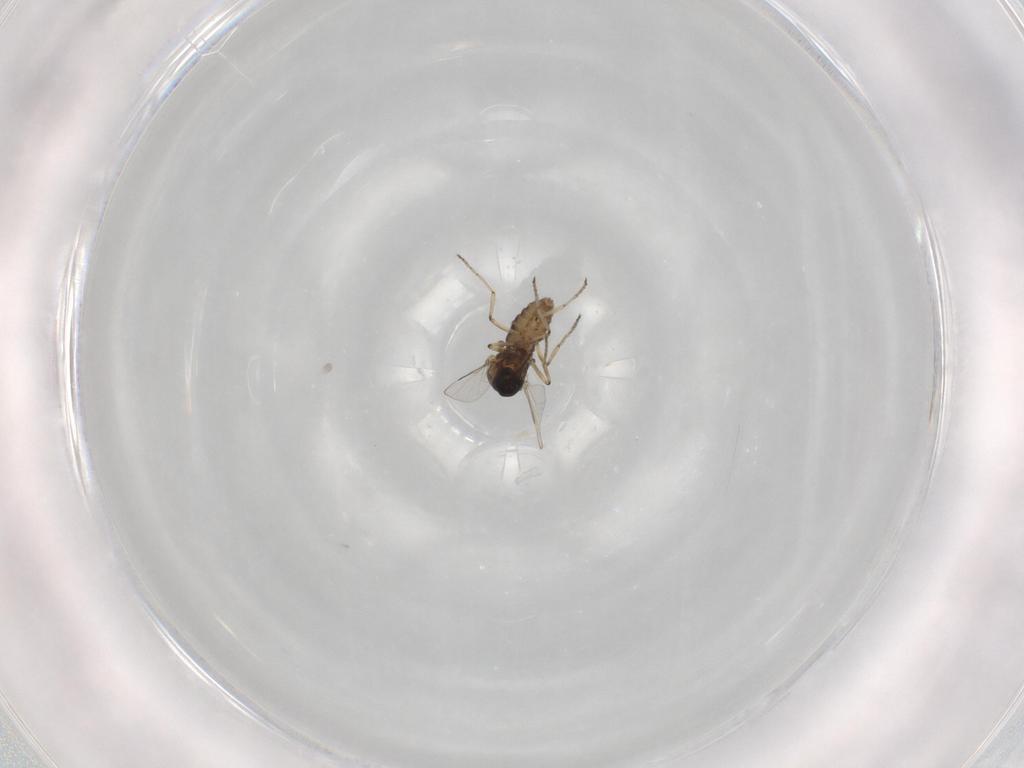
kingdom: Animalia
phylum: Arthropoda
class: Insecta
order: Diptera
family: Ceratopogonidae
